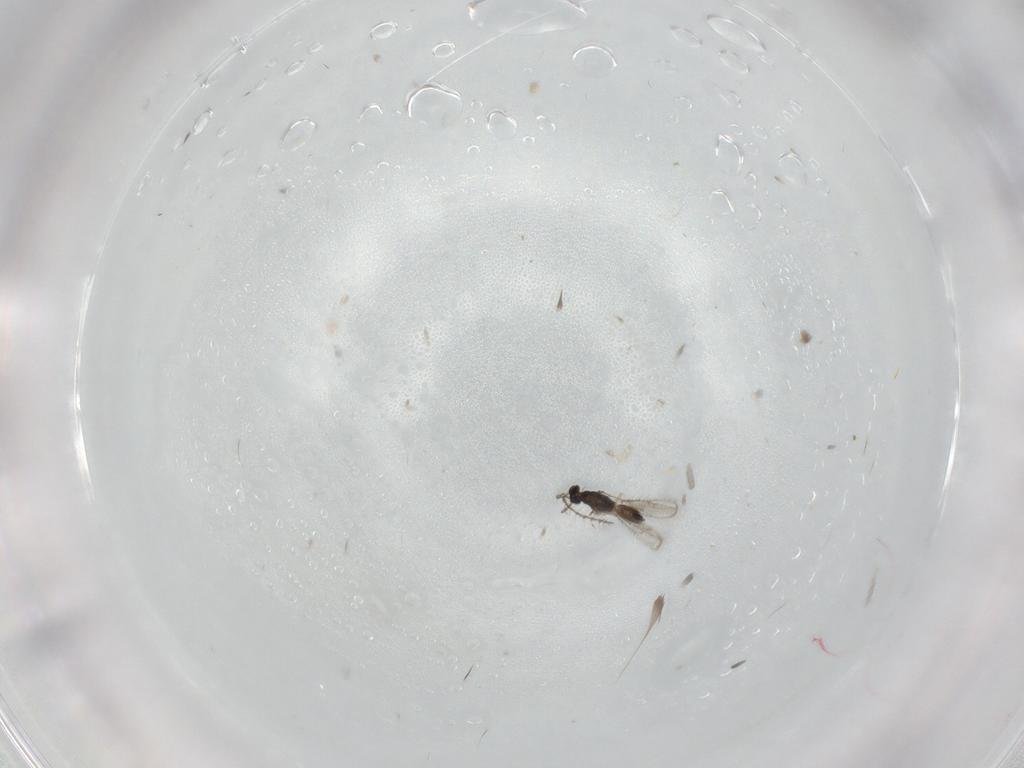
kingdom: Animalia
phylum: Arthropoda
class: Insecta
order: Hymenoptera
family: Pteromalidae
